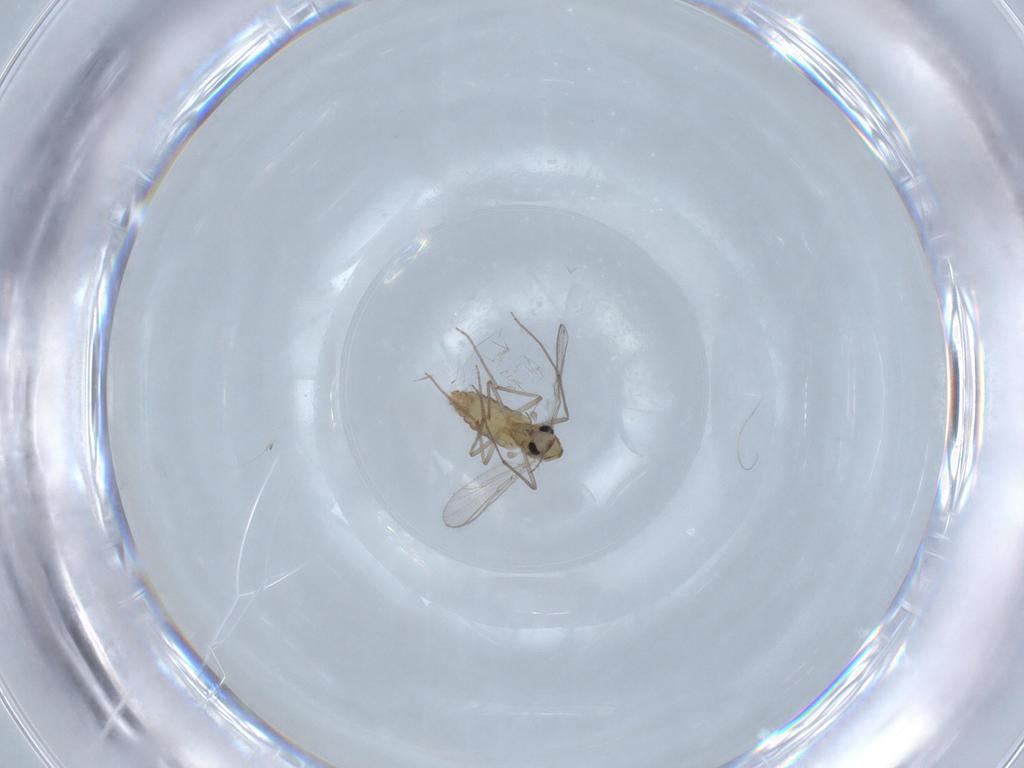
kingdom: Animalia
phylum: Arthropoda
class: Insecta
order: Diptera
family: Chironomidae
